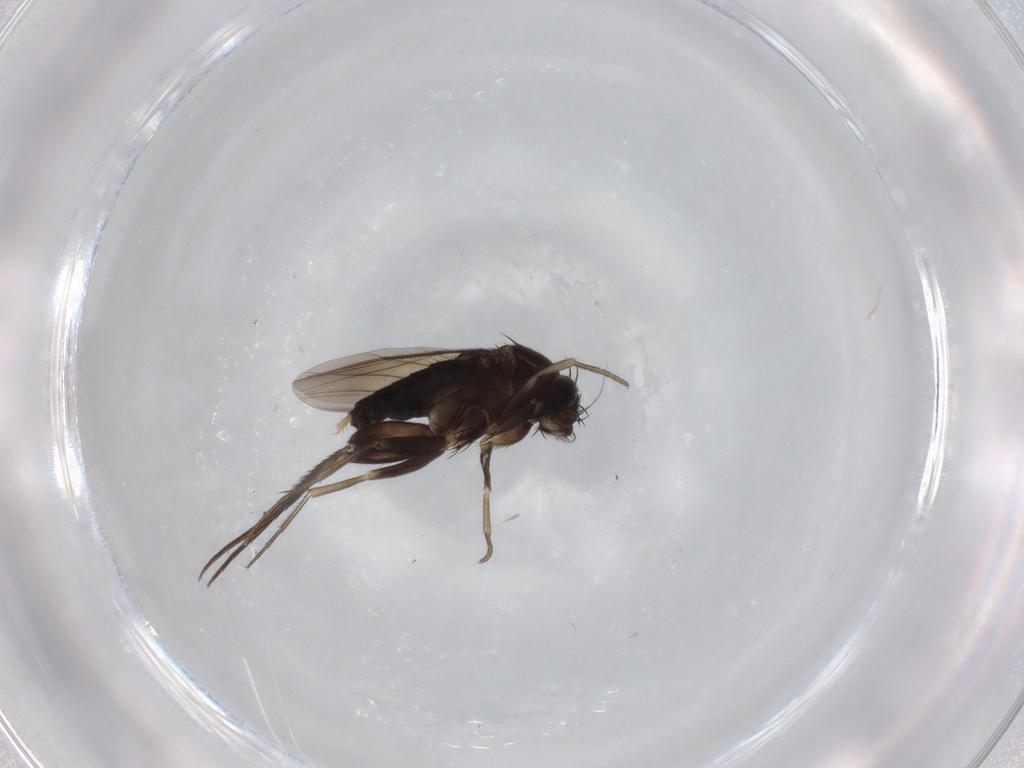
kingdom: Animalia
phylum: Arthropoda
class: Insecta
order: Diptera
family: Phoridae
